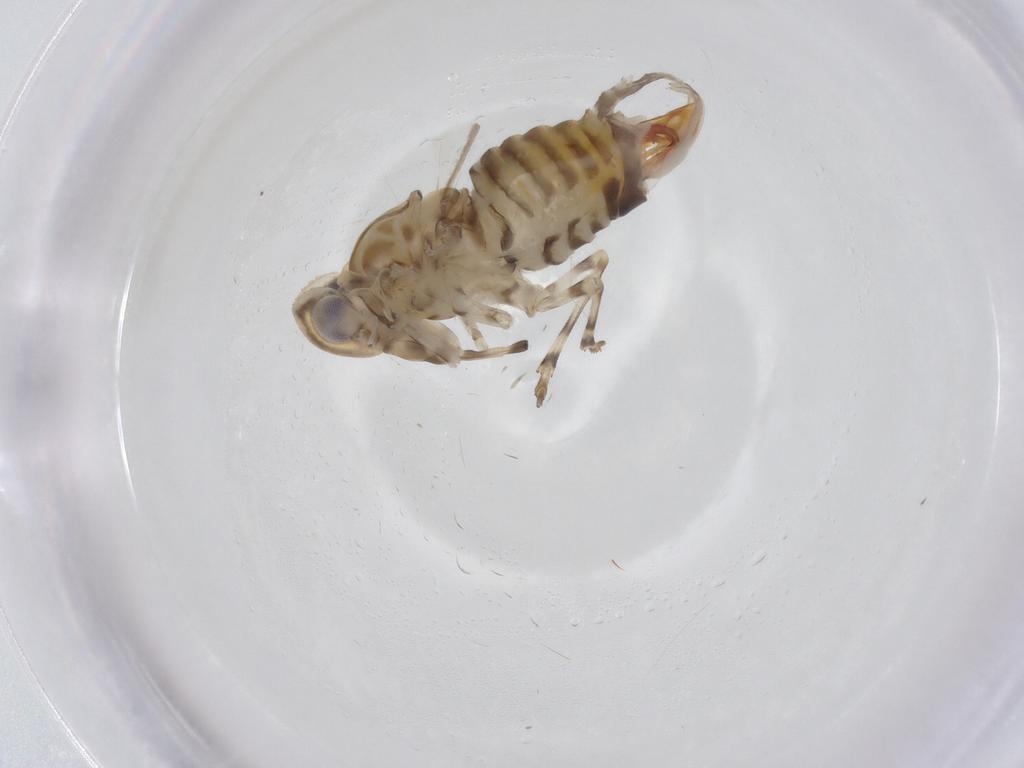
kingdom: Animalia
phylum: Arthropoda
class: Insecta
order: Hemiptera
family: Cicadellidae
